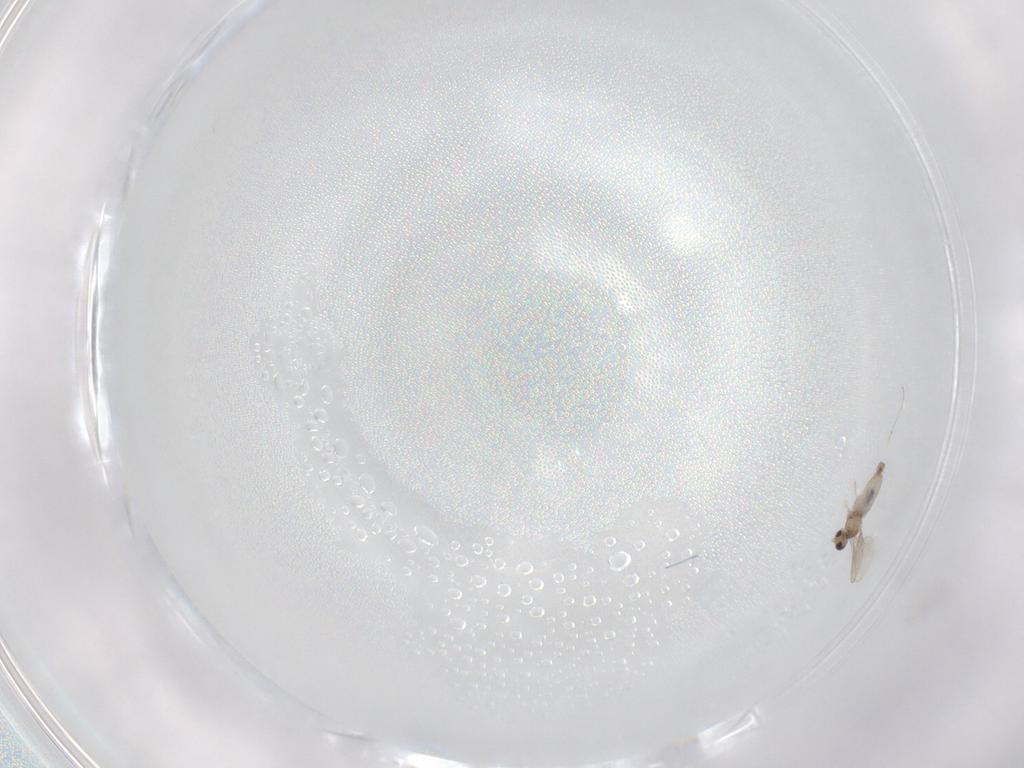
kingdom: Animalia
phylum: Arthropoda
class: Insecta
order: Diptera
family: Cecidomyiidae
